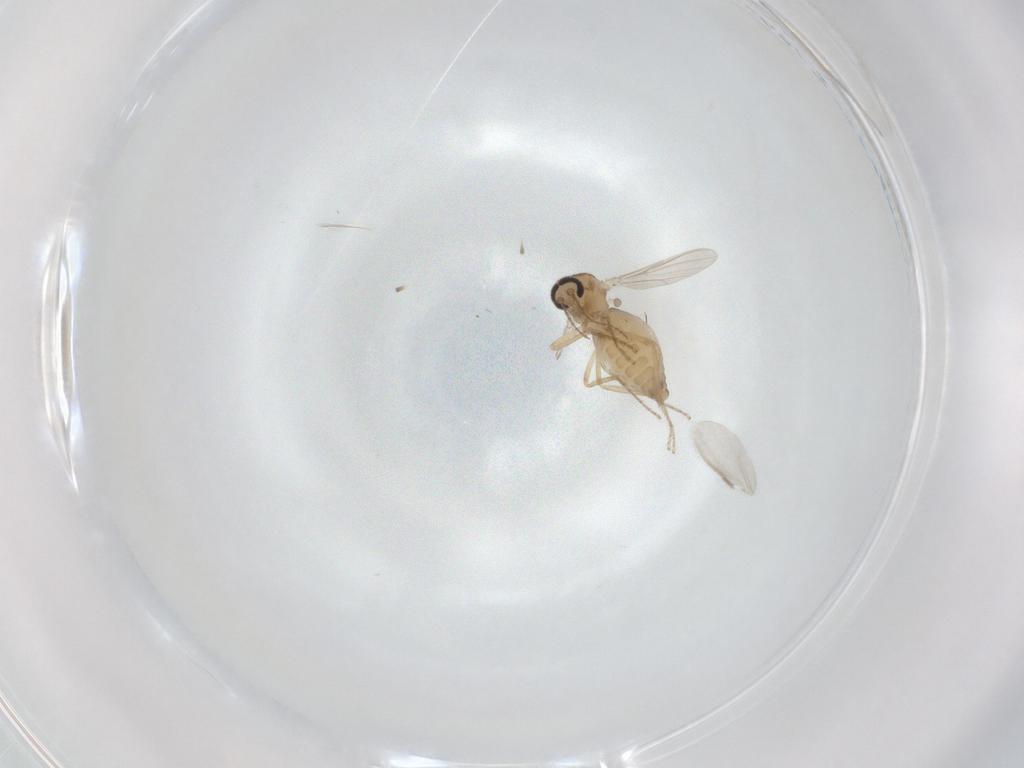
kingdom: Animalia
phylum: Arthropoda
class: Insecta
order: Diptera
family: Ceratopogonidae
